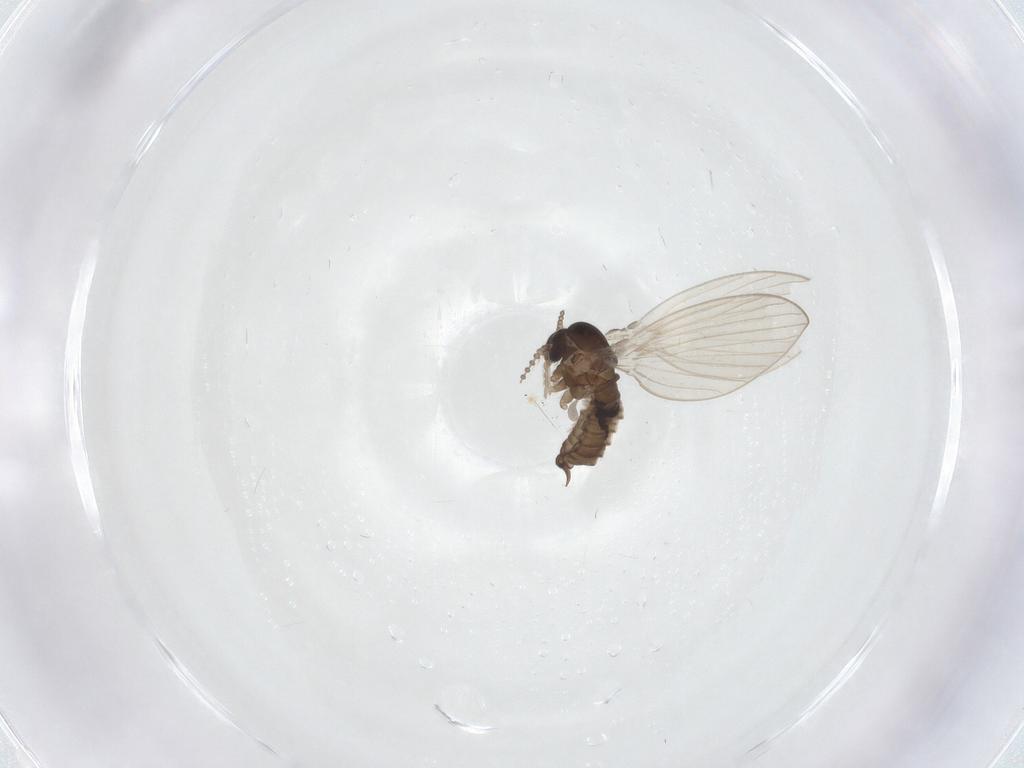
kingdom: Animalia
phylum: Arthropoda
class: Insecta
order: Diptera
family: Psychodidae
